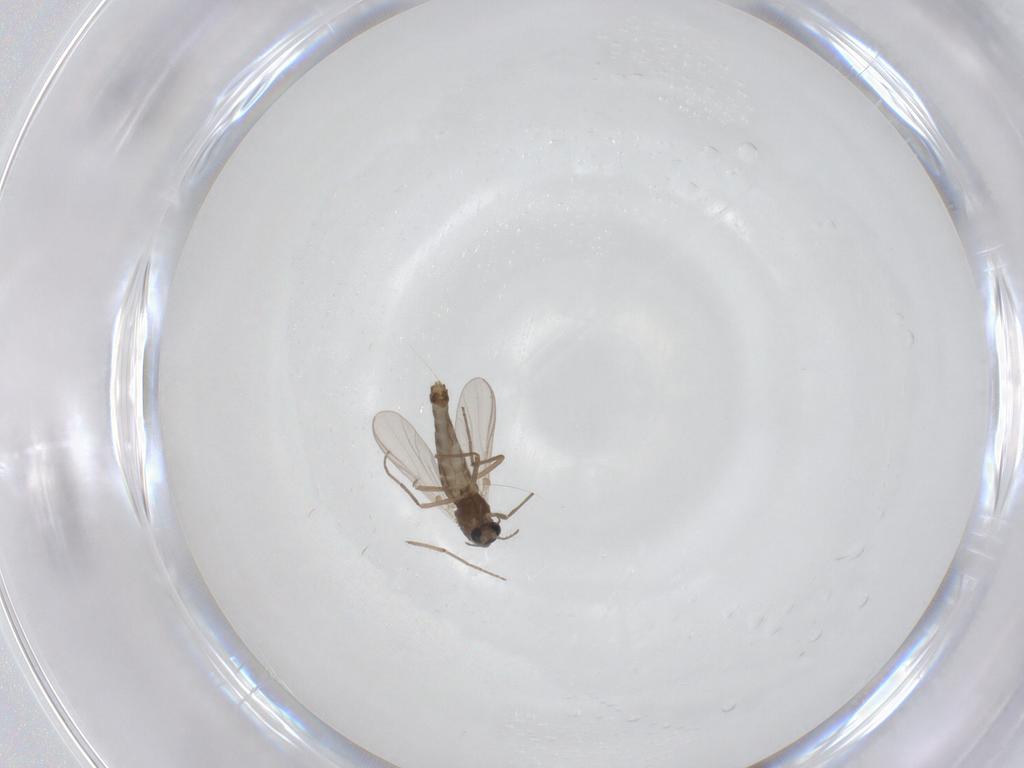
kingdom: Animalia
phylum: Arthropoda
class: Insecta
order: Diptera
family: Chironomidae
